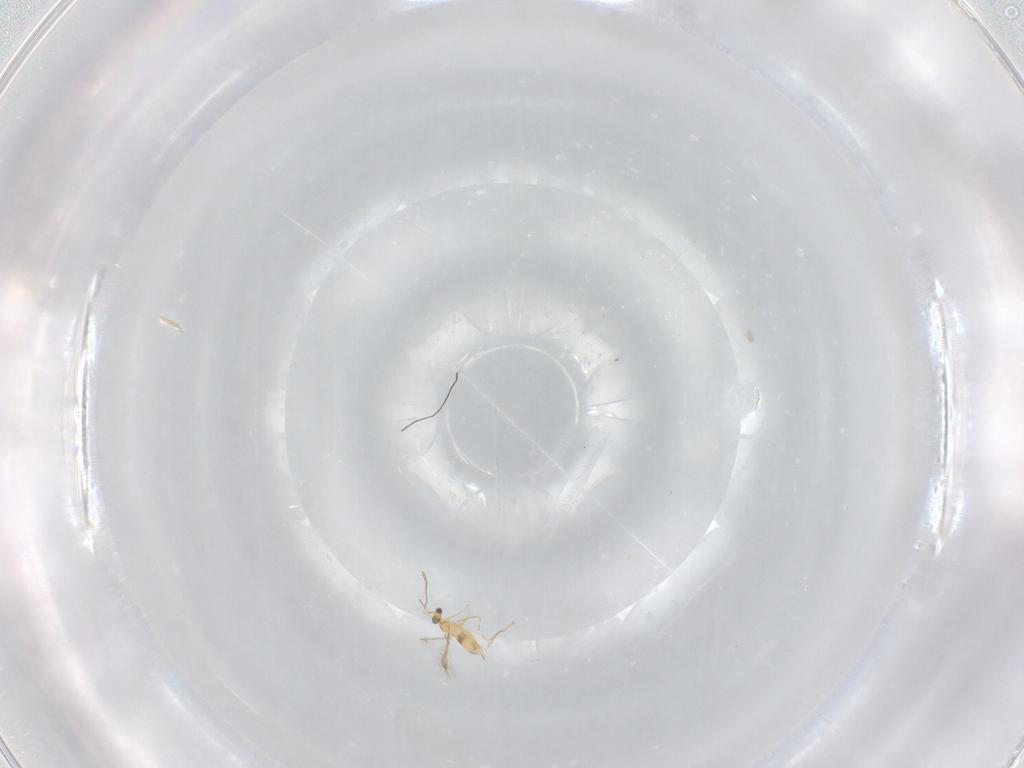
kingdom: Animalia
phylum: Arthropoda
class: Insecta
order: Hymenoptera
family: Mymaridae
